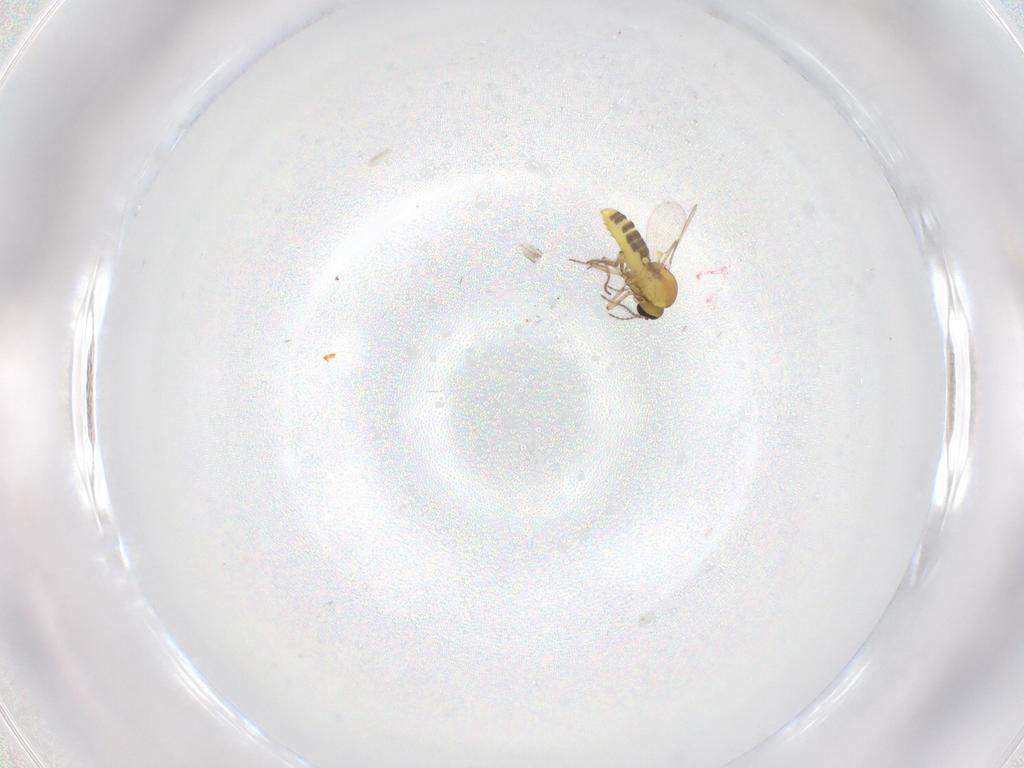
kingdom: Animalia
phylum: Arthropoda
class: Insecta
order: Diptera
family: Ceratopogonidae
